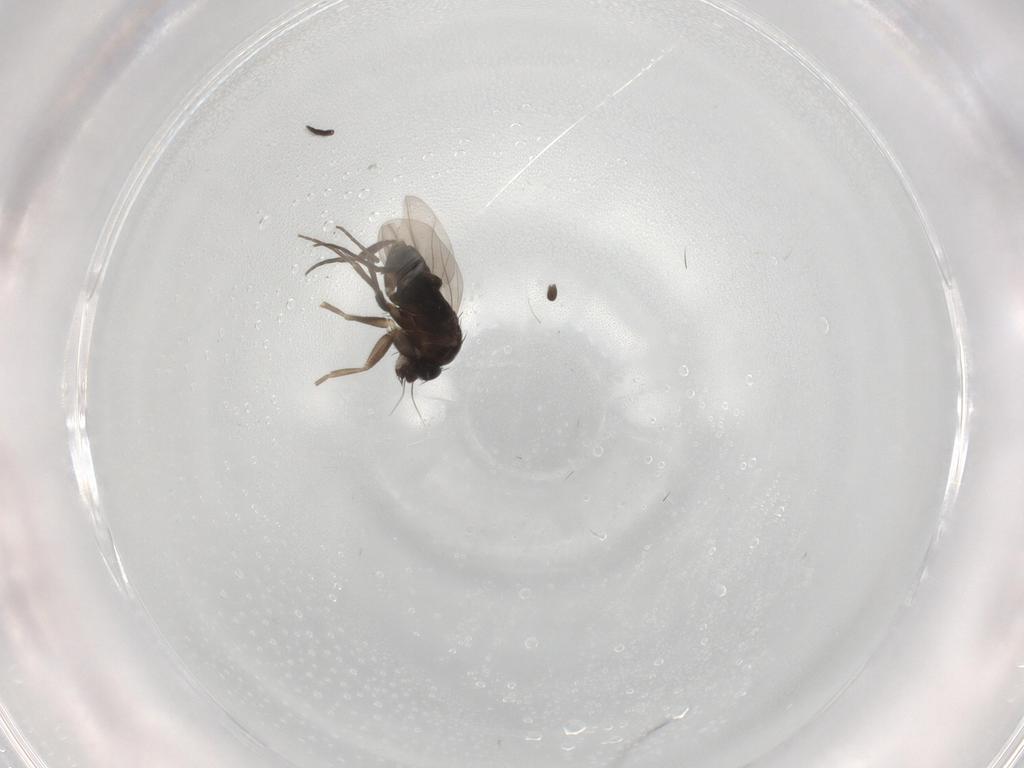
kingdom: Animalia
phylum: Arthropoda
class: Insecta
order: Diptera
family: Phoridae
